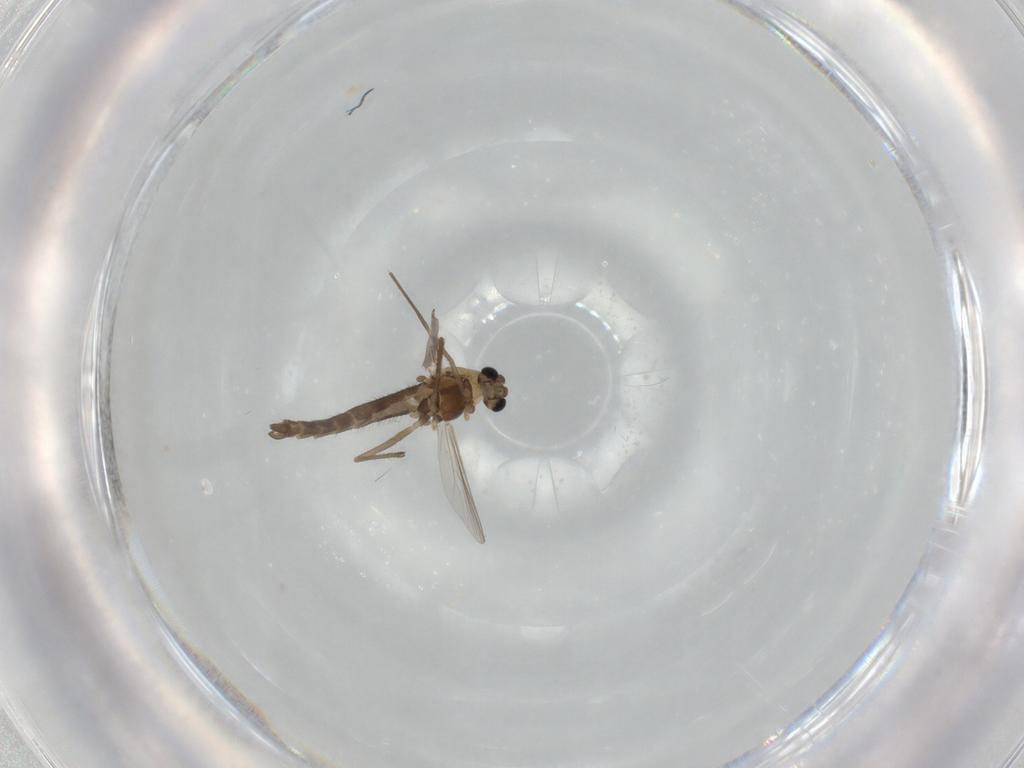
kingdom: Animalia
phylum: Arthropoda
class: Insecta
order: Diptera
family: Chironomidae
